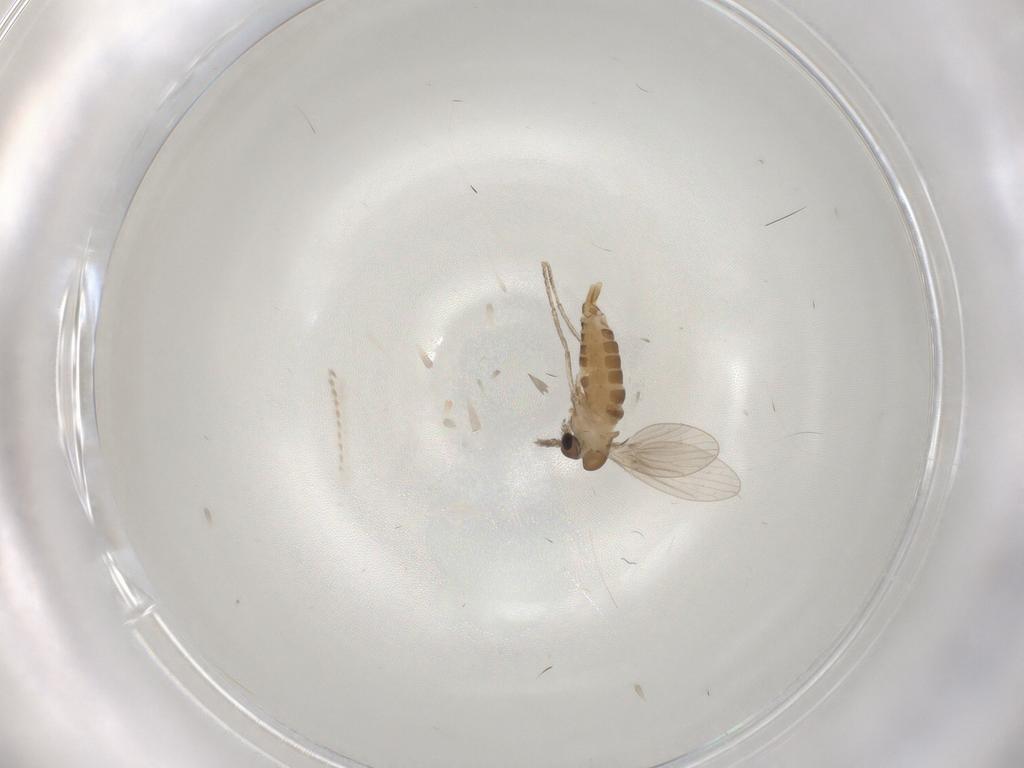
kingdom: Animalia
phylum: Arthropoda
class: Insecta
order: Diptera
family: Psychodidae
